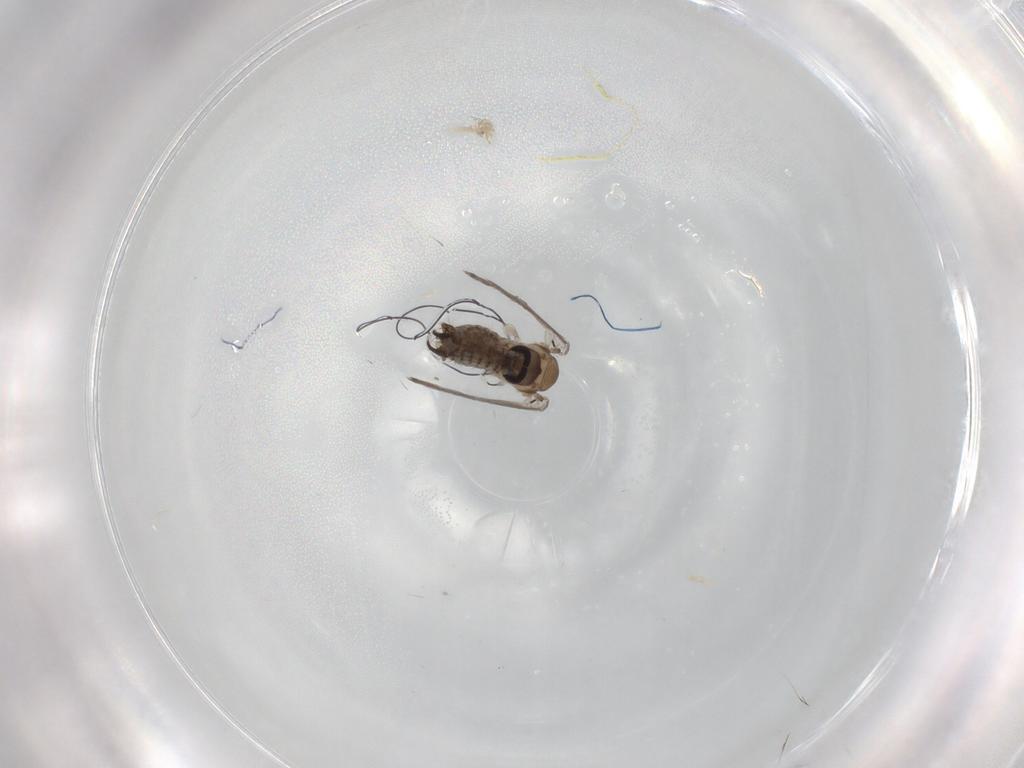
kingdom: Animalia
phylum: Arthropoda
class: Insecta
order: Diptera
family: Psychodidae
